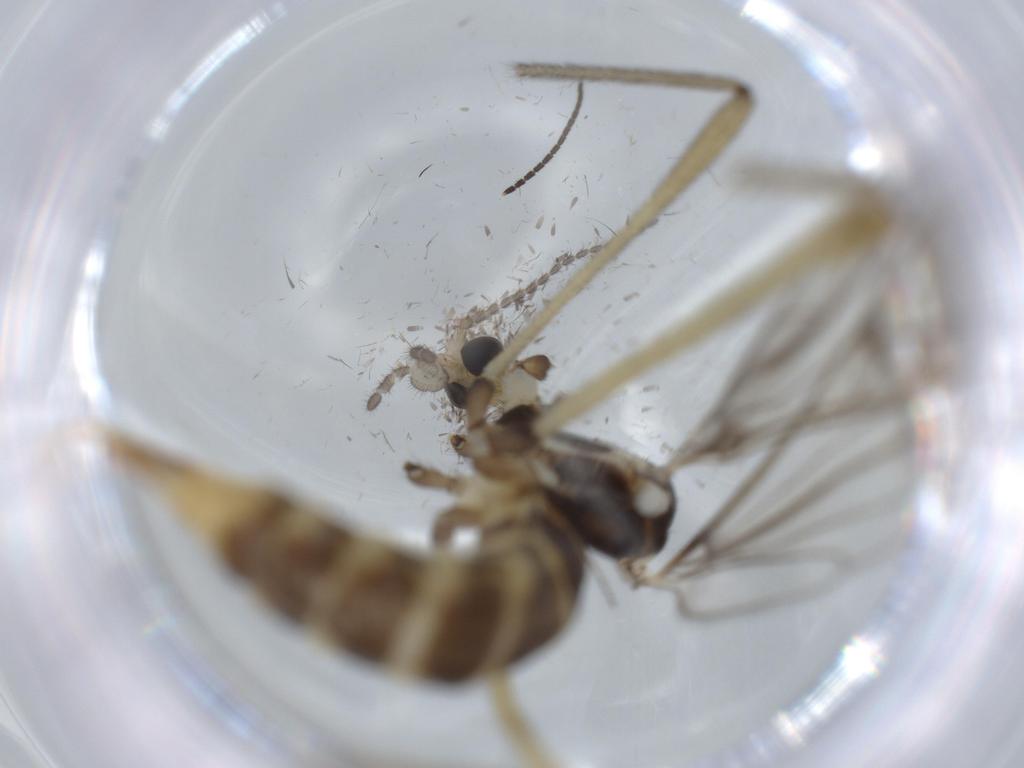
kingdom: Animalia
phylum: Arthropoda
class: Insecta
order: Diptera
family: Limoniidae
